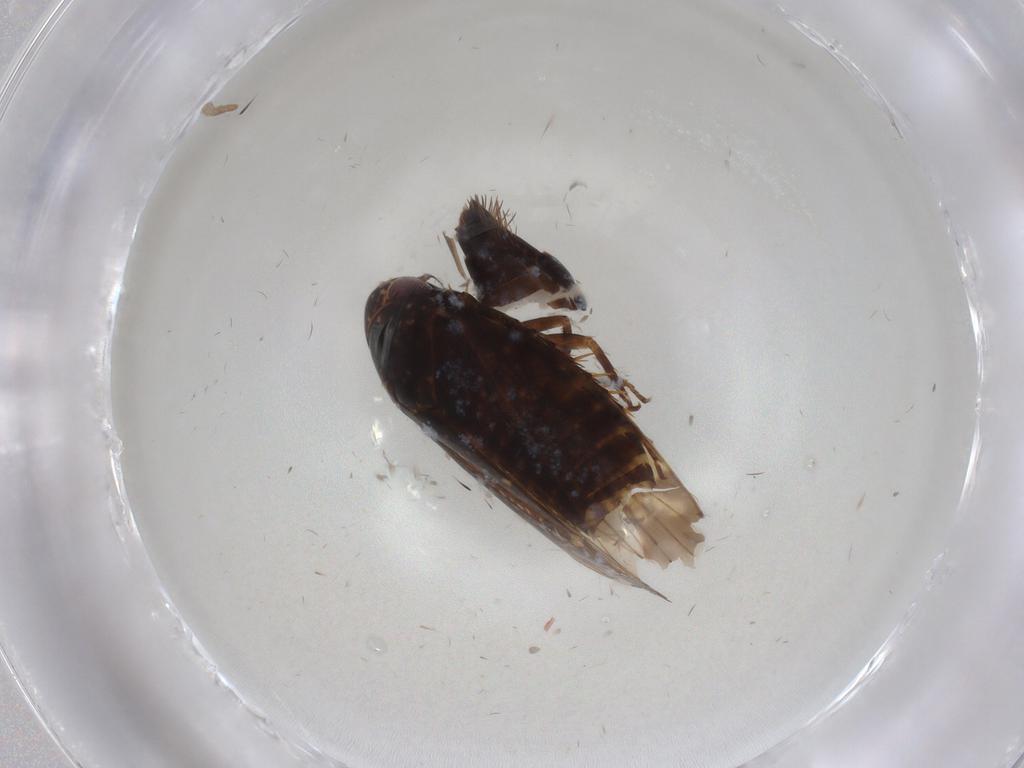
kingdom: Animalia
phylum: Arthropoda
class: Insecta
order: Hemiptera
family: Cicadellidae
